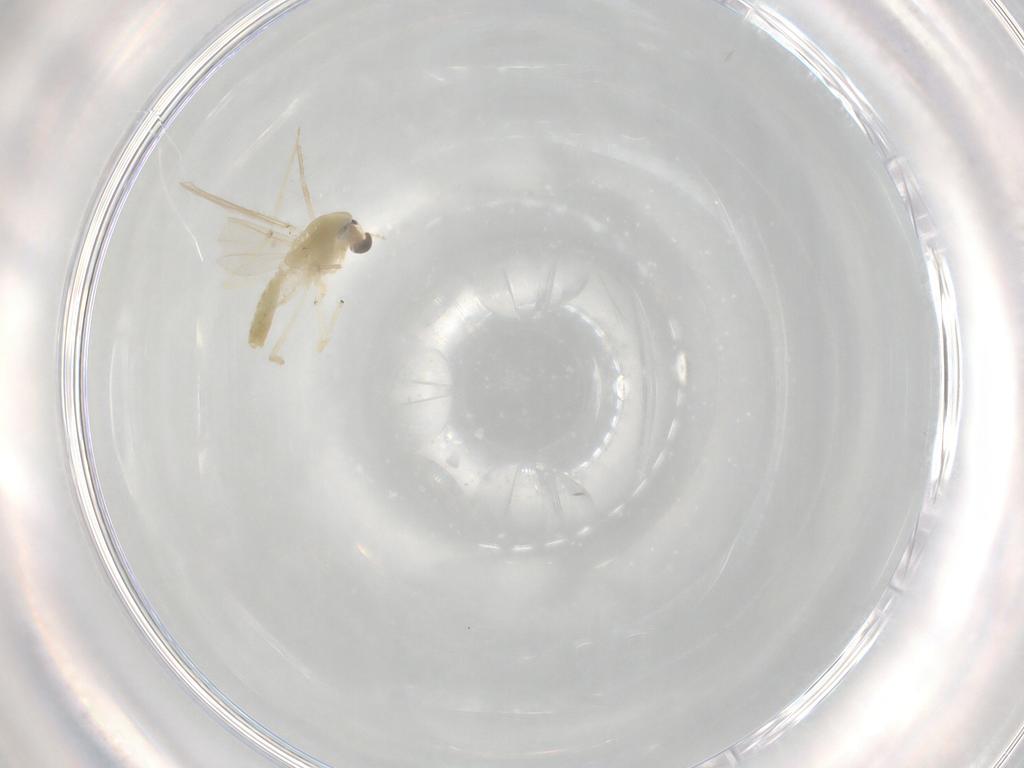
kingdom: Animalia
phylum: Arthropoda
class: Insecta
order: Diptera
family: Chironomidae
